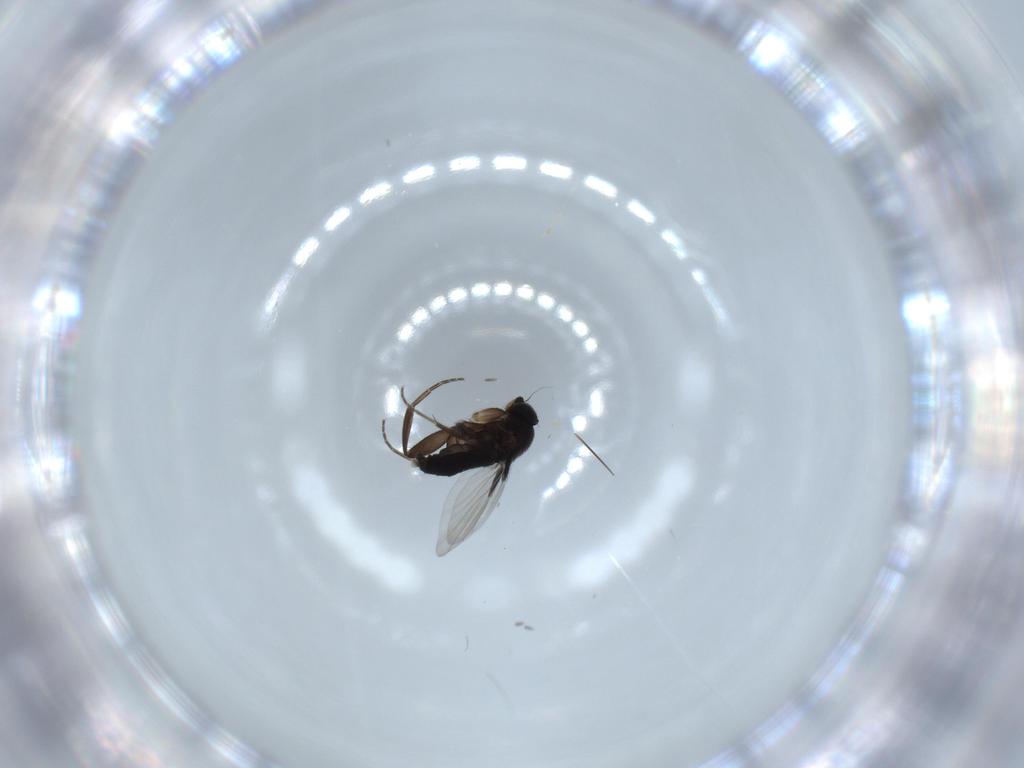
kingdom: Animalia
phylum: Arthropoda
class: Insecta
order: Diptera
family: Phoridae
